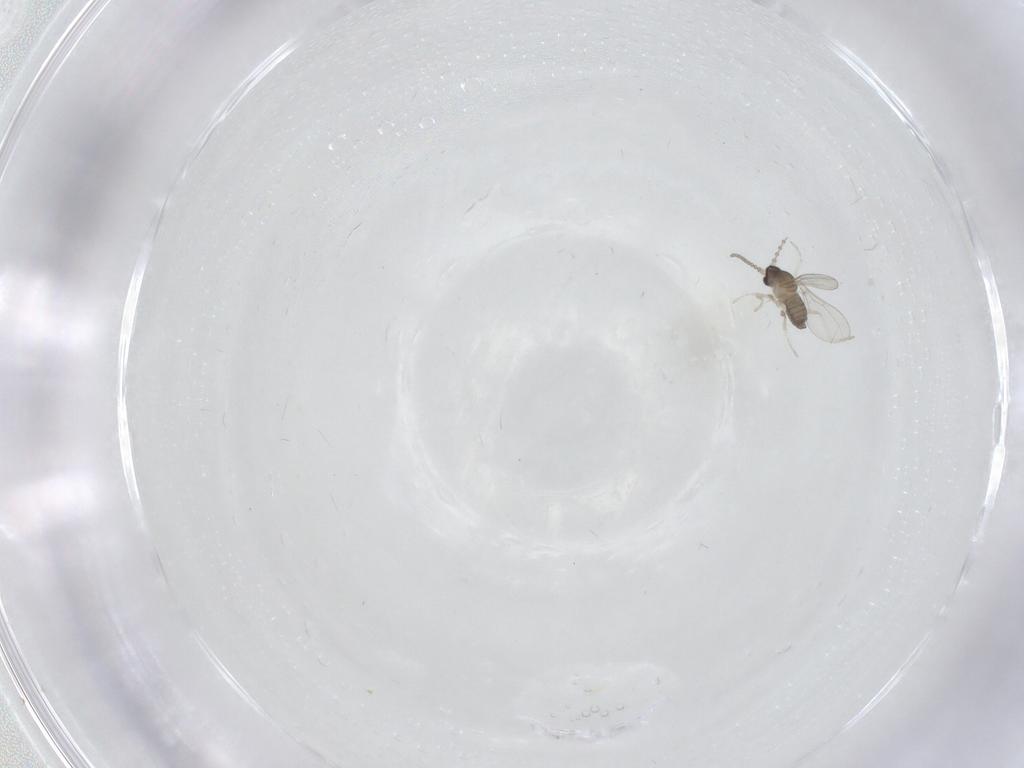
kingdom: Animalia
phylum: Arthropoda
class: Insecta
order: Diptera
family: Cecidomyiidae
